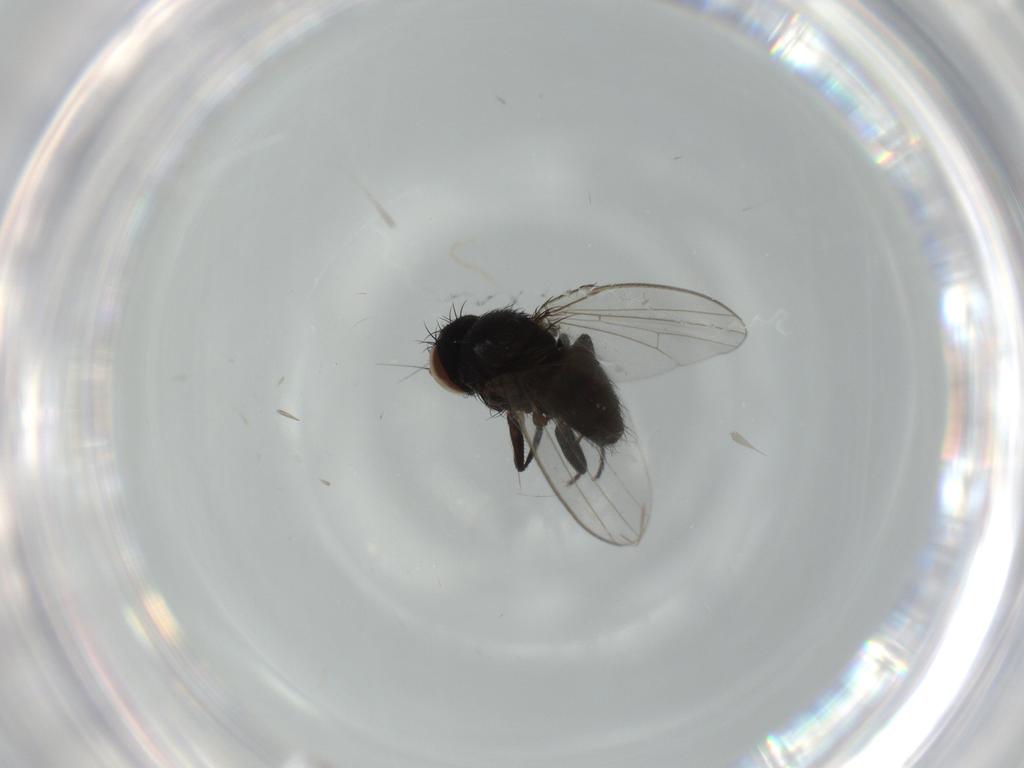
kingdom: Animalia
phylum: Arthropoda
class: Insecta
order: Diptera
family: Milichiidae
